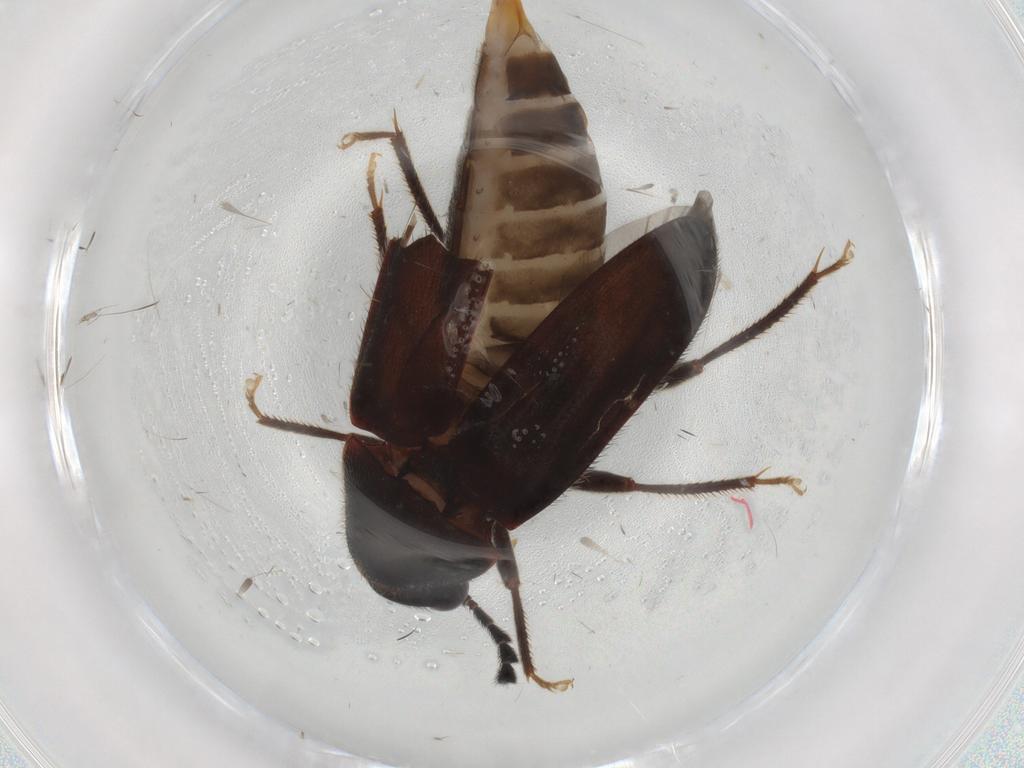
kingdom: Animalia
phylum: Arthropoda
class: Insecta
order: Coleoptera
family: Ptilodactylidae
